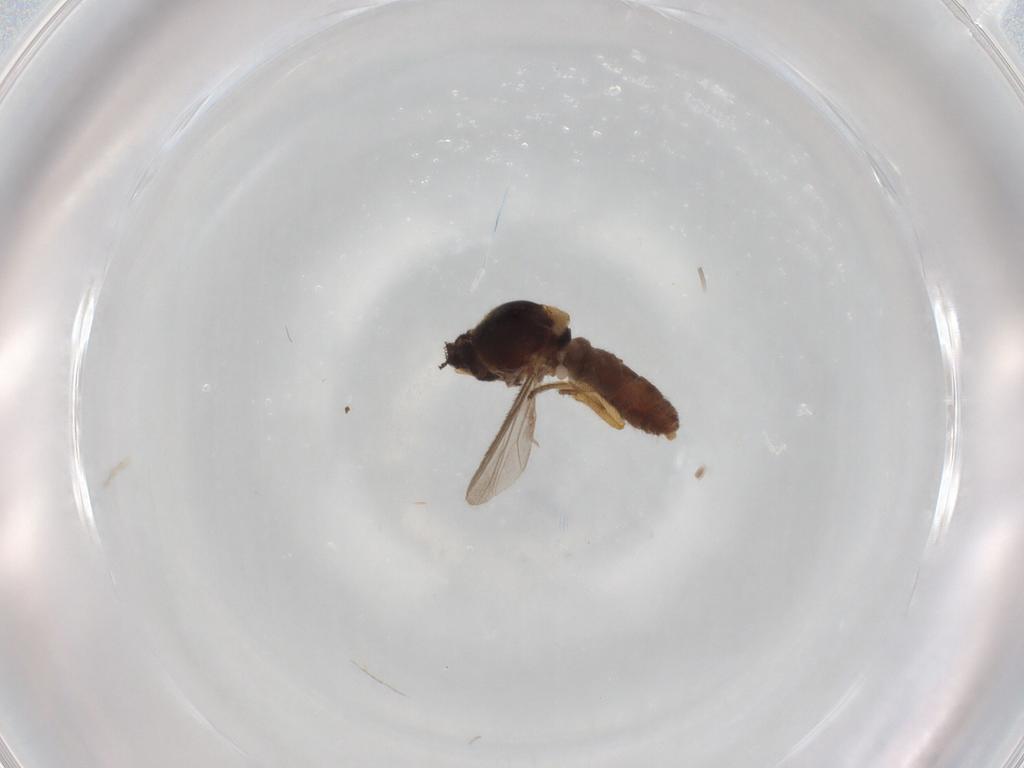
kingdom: Animalia
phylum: Arthropoda
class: Insecta
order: Diptera
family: Ceratopogonidae
